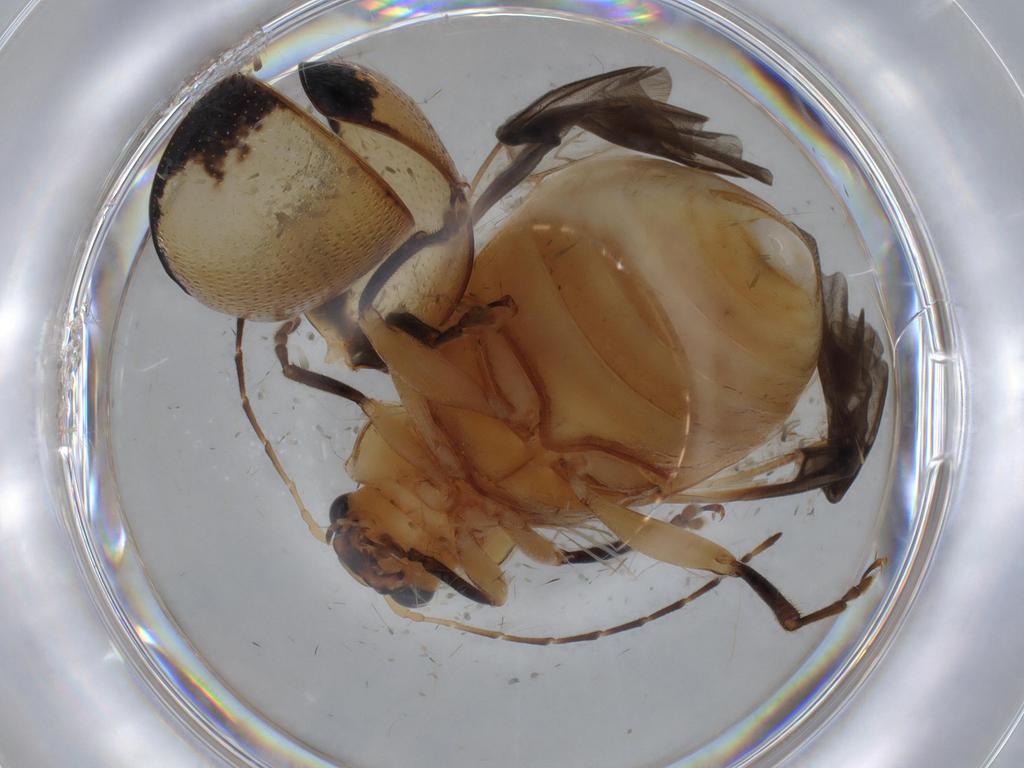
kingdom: Animalia
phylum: Arthropoda
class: Insecta
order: Coleoptera
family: Chrysomelidae
